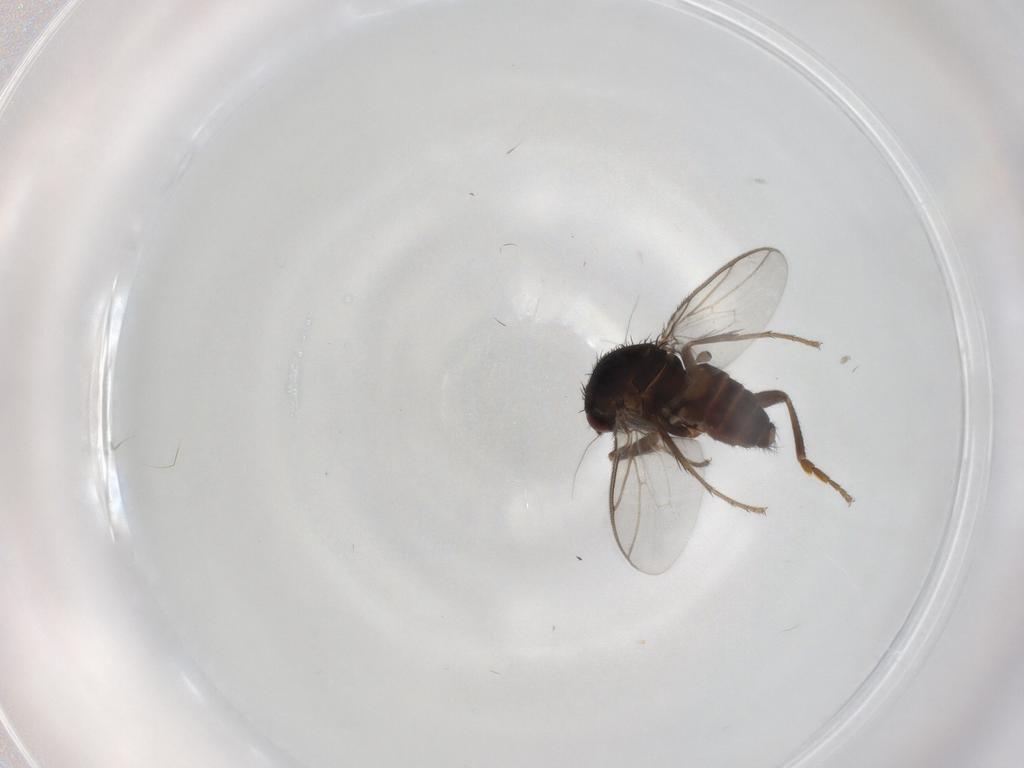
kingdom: Animalia
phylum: Arthropoda
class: Insecta
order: Diptera
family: Sphaeroceridae
